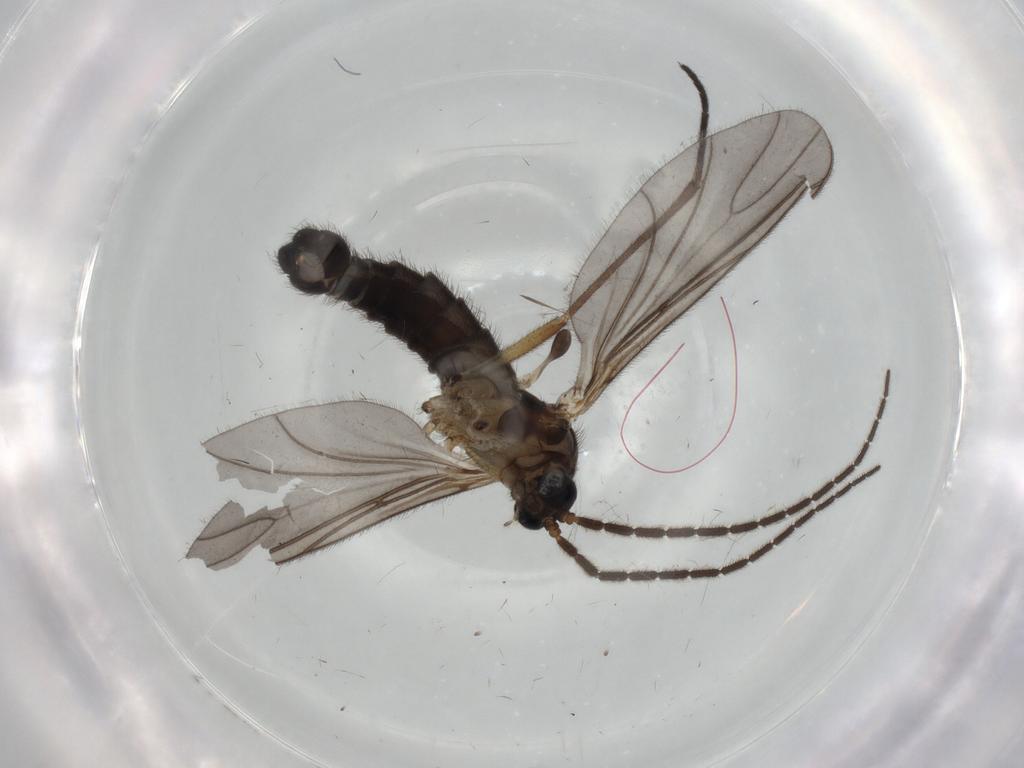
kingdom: Animalia
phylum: Arthropoda
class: Insecta
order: Diptera
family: Sciaridae
